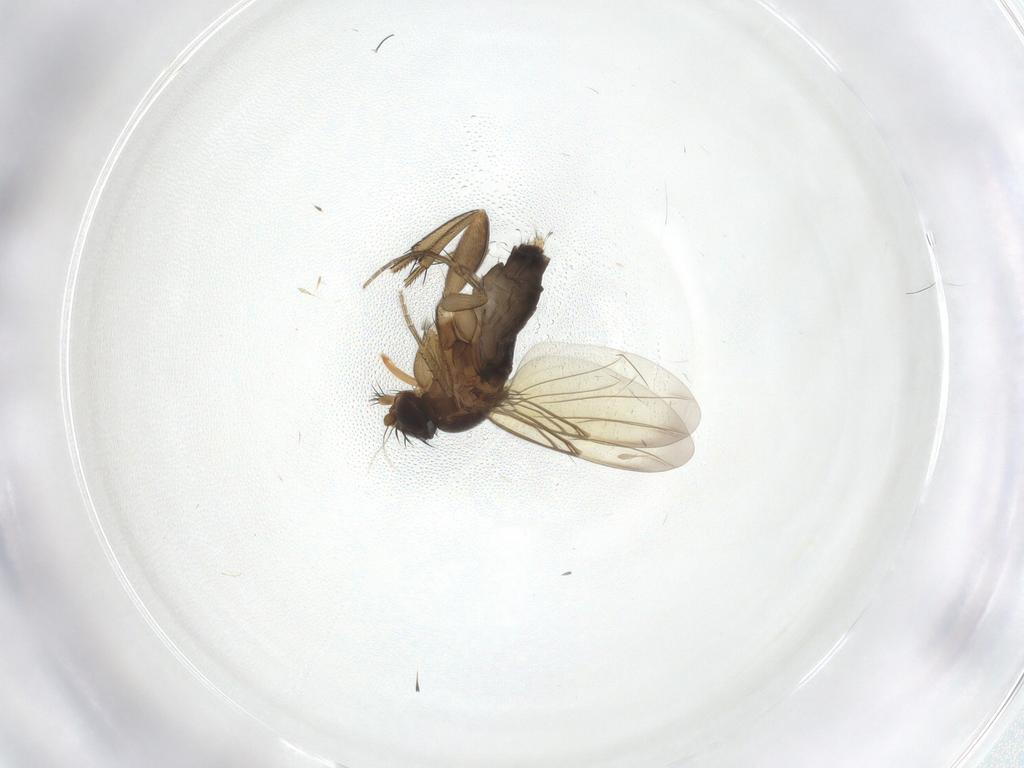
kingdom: Animalia
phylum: Arthropoda
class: Insecta
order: Diptera
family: Phoridae
